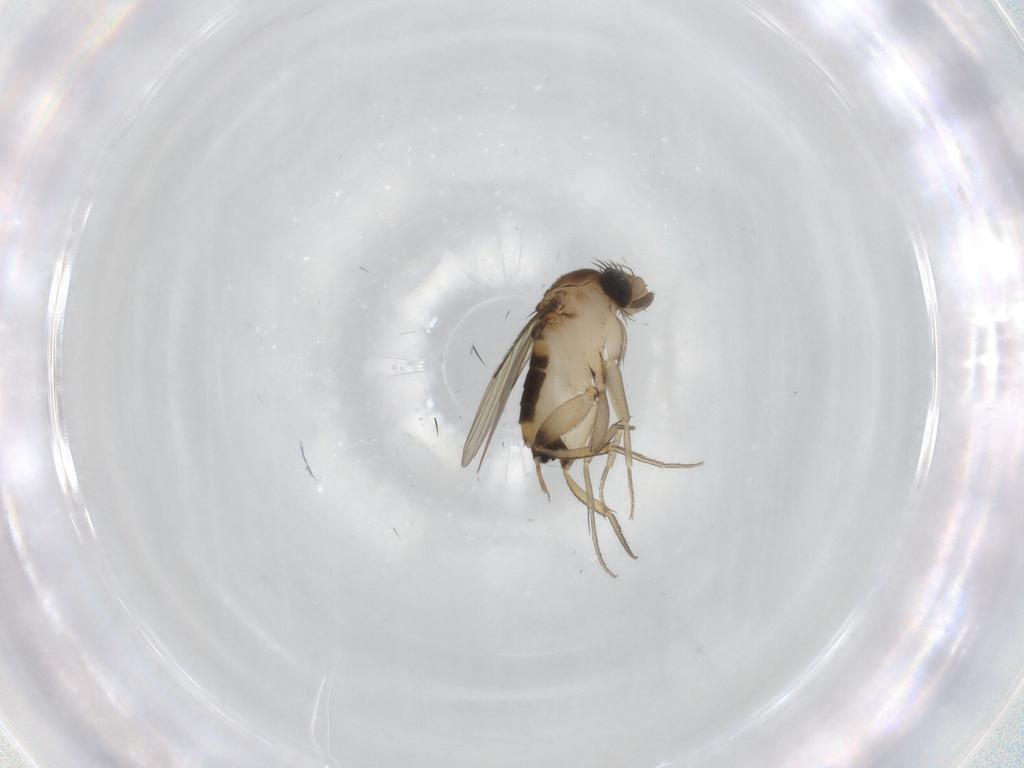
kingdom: Animalia
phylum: Arthropoda
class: Insecta
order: Diptera
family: Phoridae
